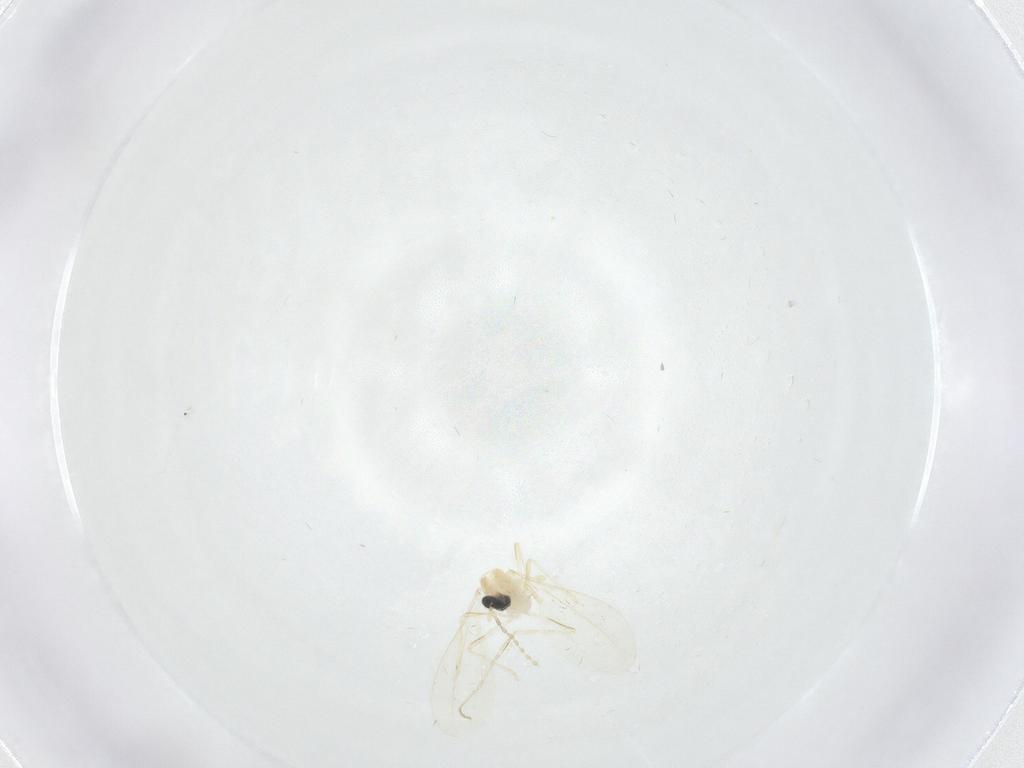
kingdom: Animalia
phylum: Arthropoda
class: Insecta
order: Diptera
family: Cecidomyiidae
